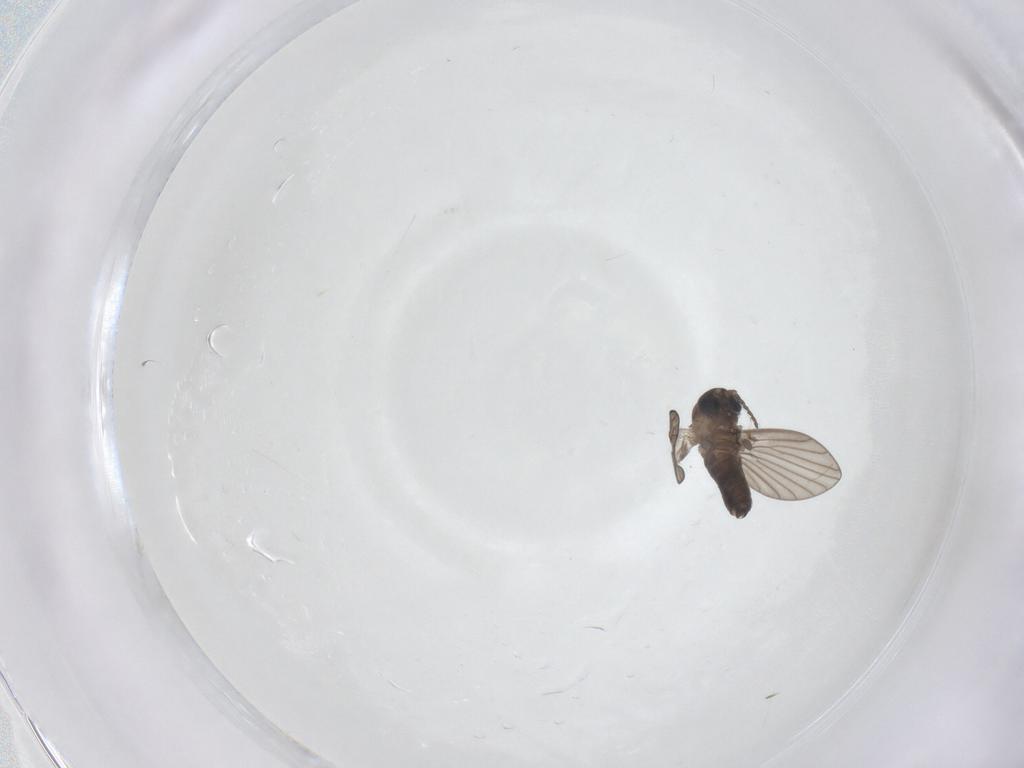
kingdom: Animalia
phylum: Arthropoda
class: Insecta
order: Diptera
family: Psychodidae
